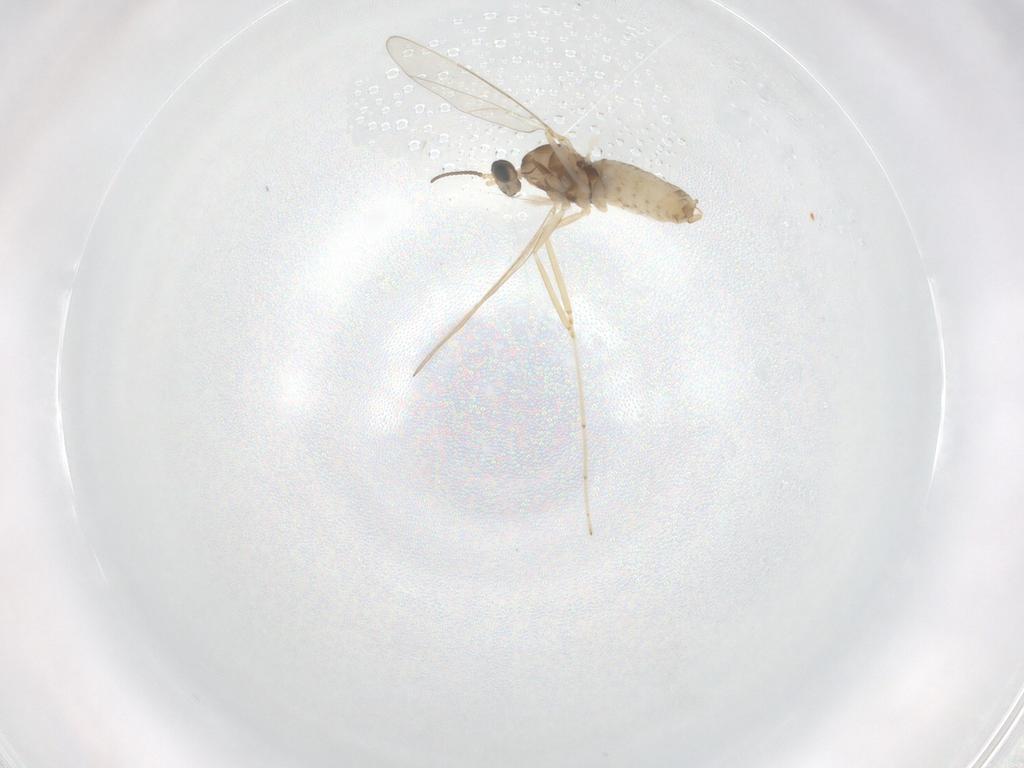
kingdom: Animalia
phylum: Arthropoda
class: Insecta
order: Diptera
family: Cecidomyiidae
